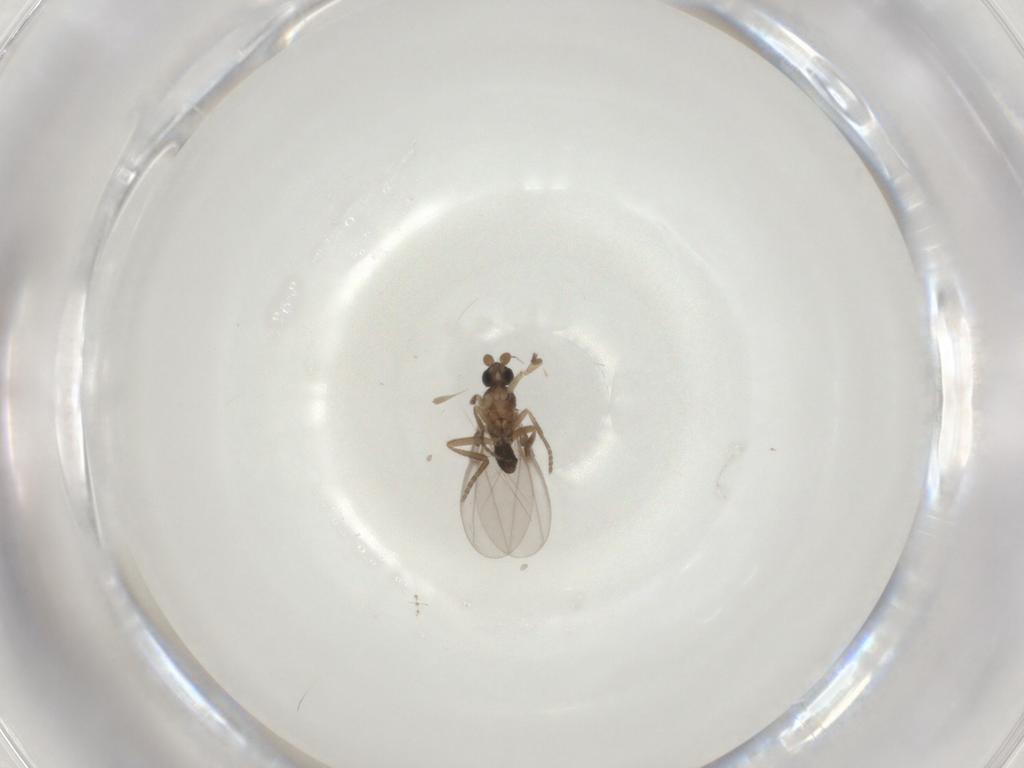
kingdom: Animalia
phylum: Arthropoda
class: Insecta
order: Diptera
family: Phoridae
